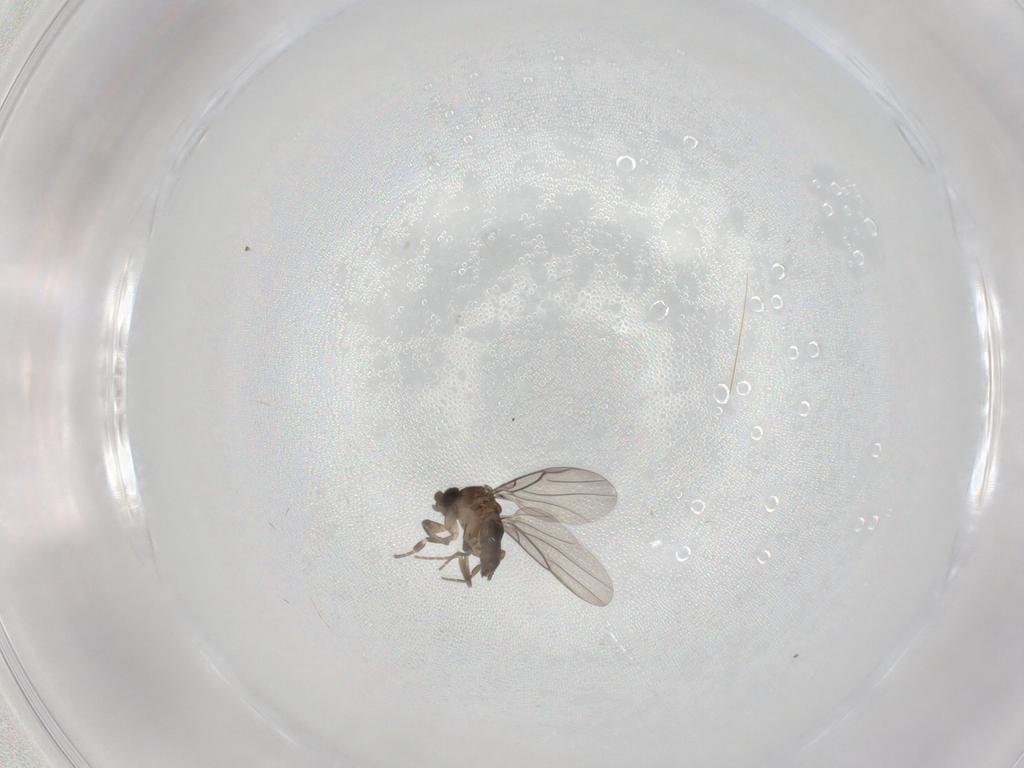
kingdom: Animalia
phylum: Arthropoda
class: Insecta
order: Diptera
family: Phoridae
